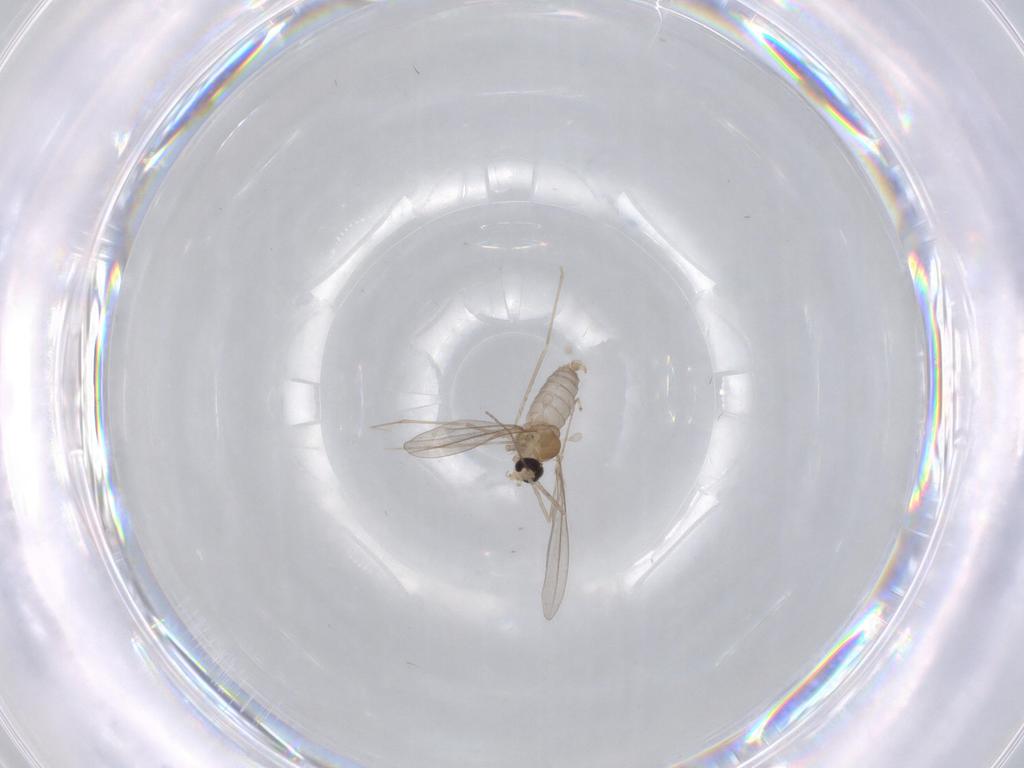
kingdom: Animalia
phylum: Arthropoda
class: Insecta
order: Diptera
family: Cecidomyiidae
